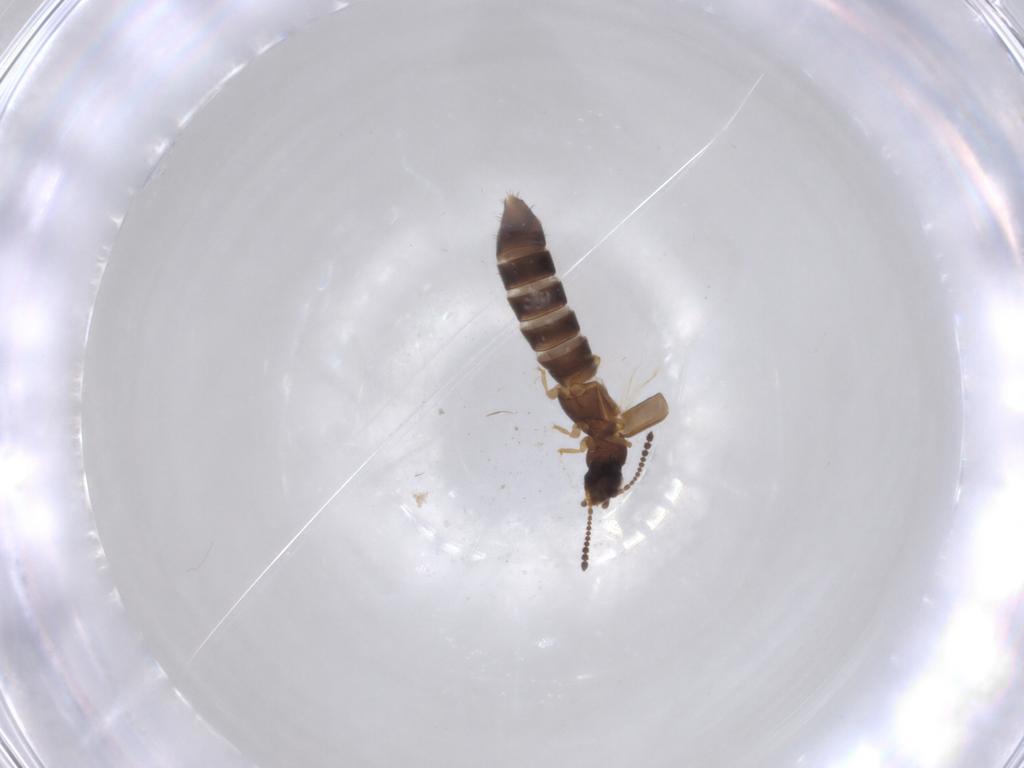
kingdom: Animalia
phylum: Arthropoda
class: Insecta
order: Coleoptera
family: Staphylinidae
